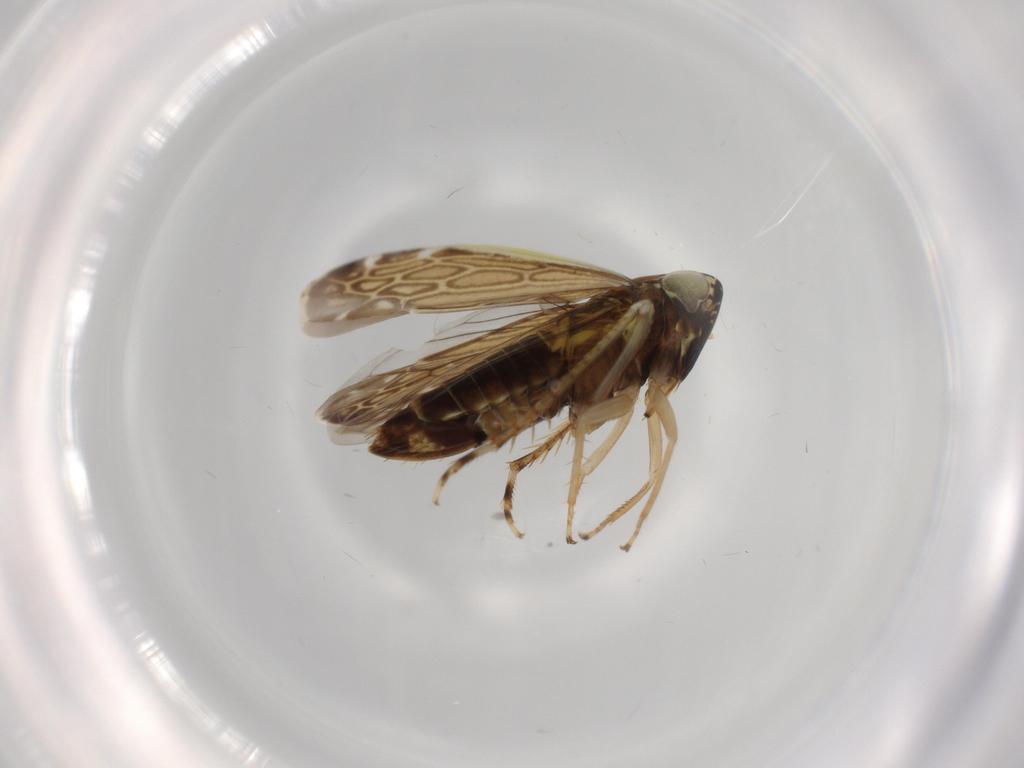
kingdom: Animalia
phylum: Arthropoda
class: Insecta
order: Hemiptera
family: Cicadellidae
